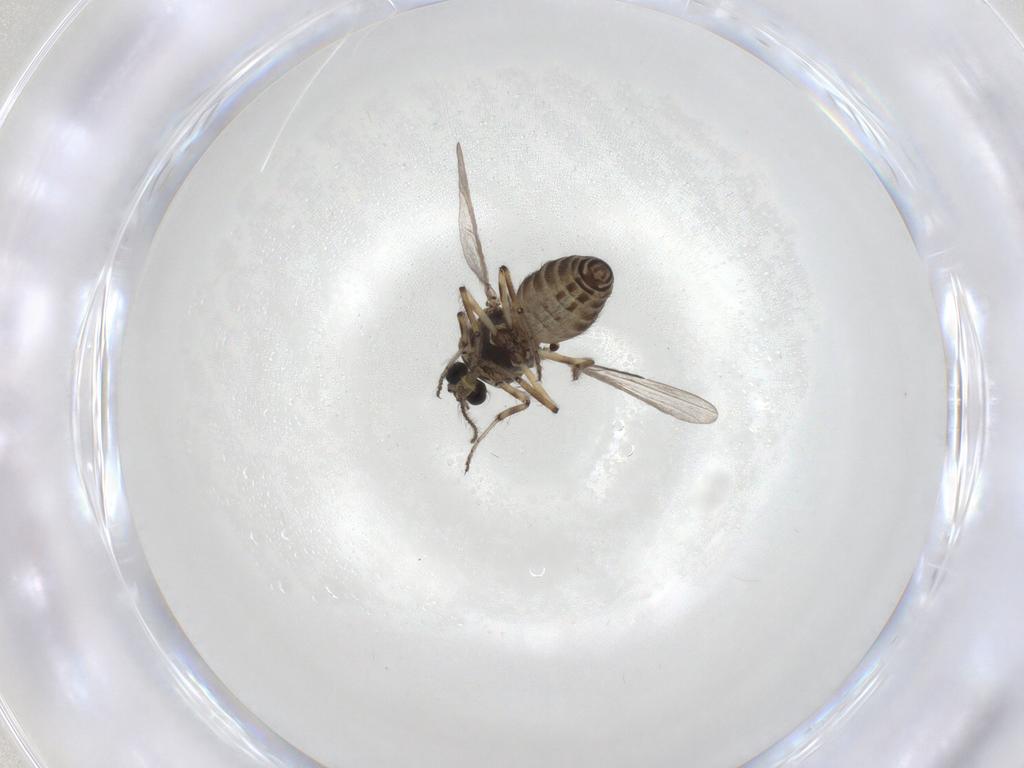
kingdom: Animalia
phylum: Arthropoda
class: Insecta
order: Diptera
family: Ceratopogonidae
